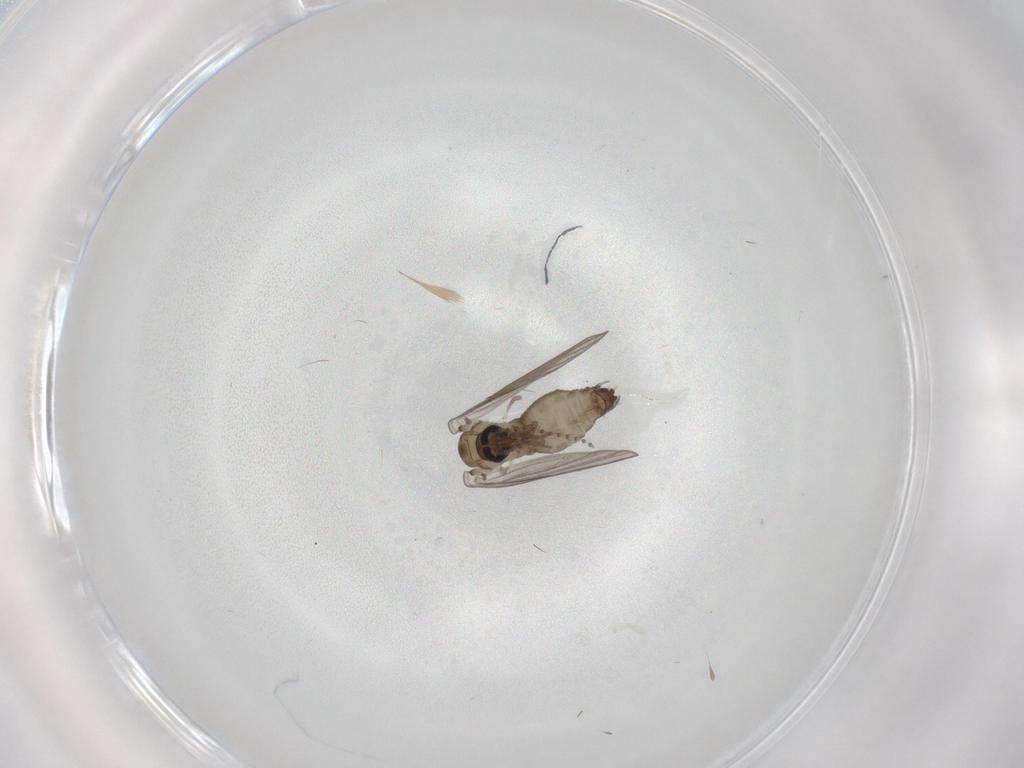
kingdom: Animalia
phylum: Arthropoda
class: Insecta
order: Diptera
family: Psychodidae
